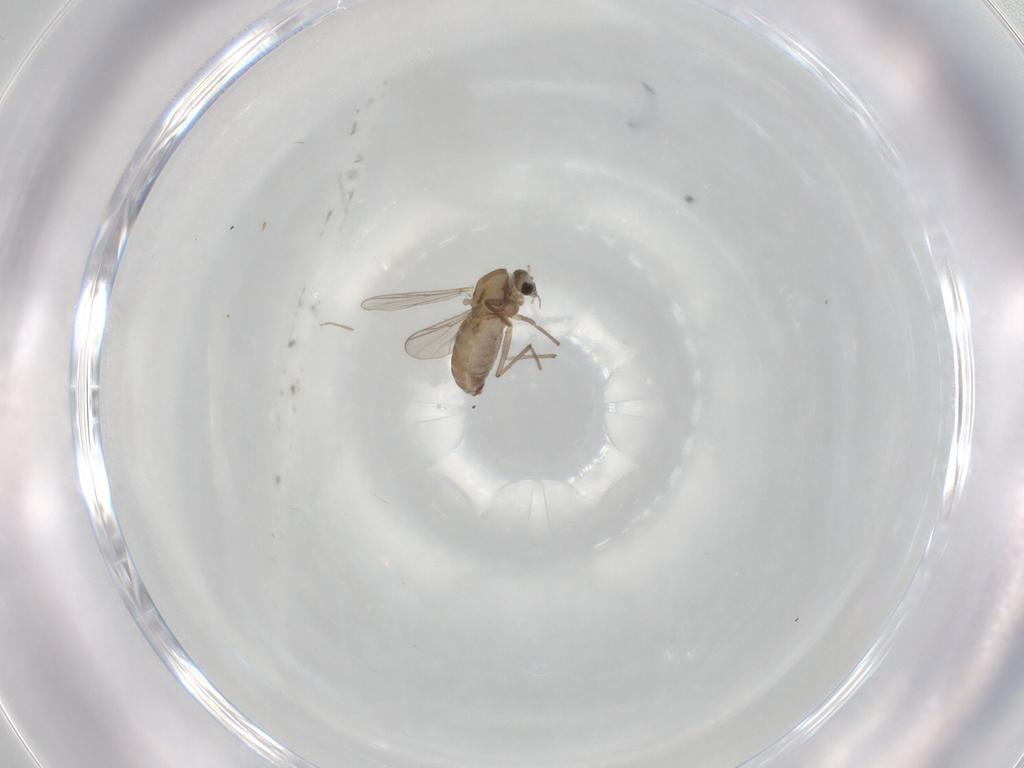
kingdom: Animalia
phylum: Arthropoda
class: Insecta
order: Diptera
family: Chironomidae
